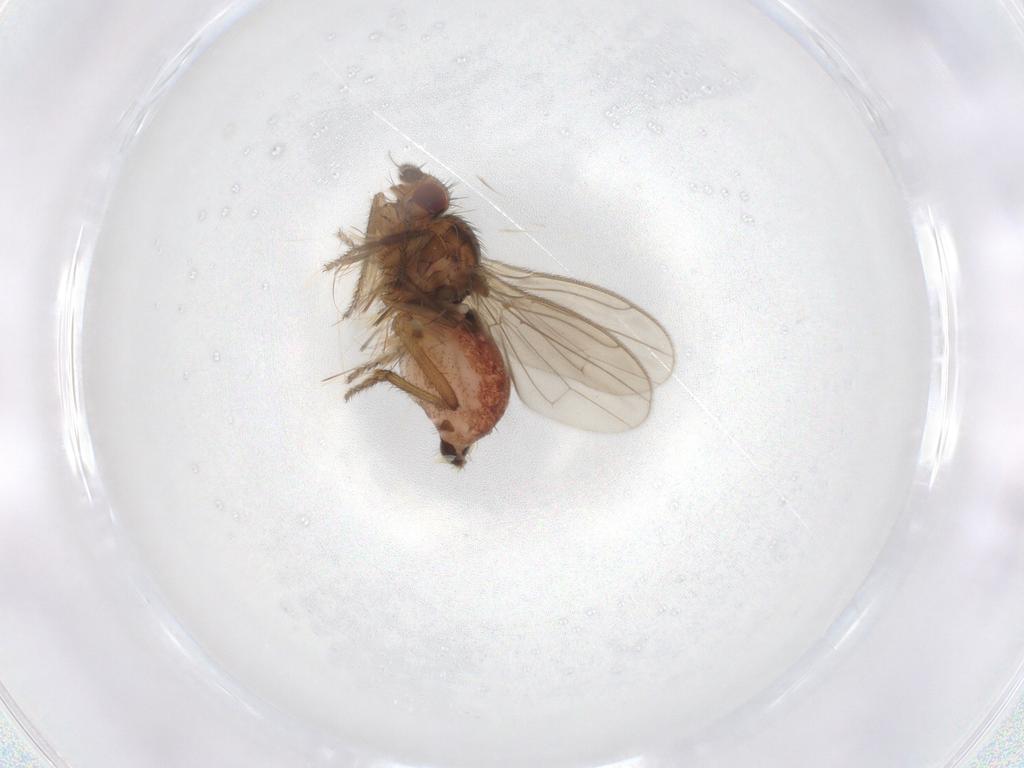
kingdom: Animalia
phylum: Arthropoda
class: Insecta
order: Diptera
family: Sphaeroceridae
